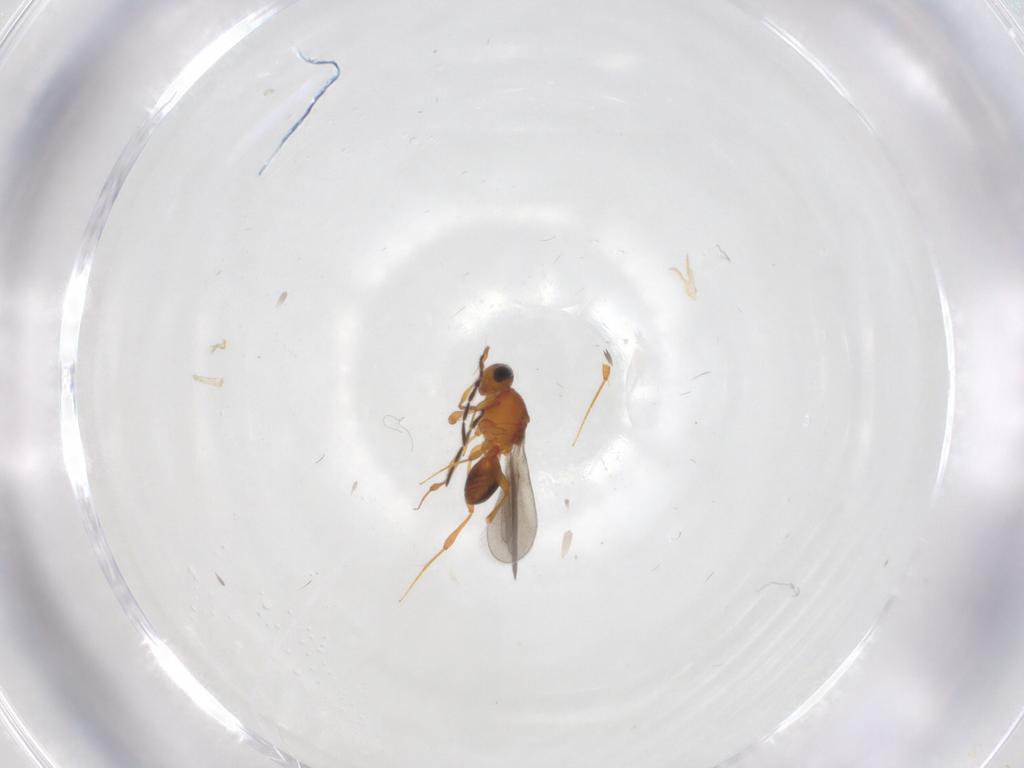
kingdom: Animalia
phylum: Arthropoda
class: Insecta
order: Hymenoptera
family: Platygastridae
